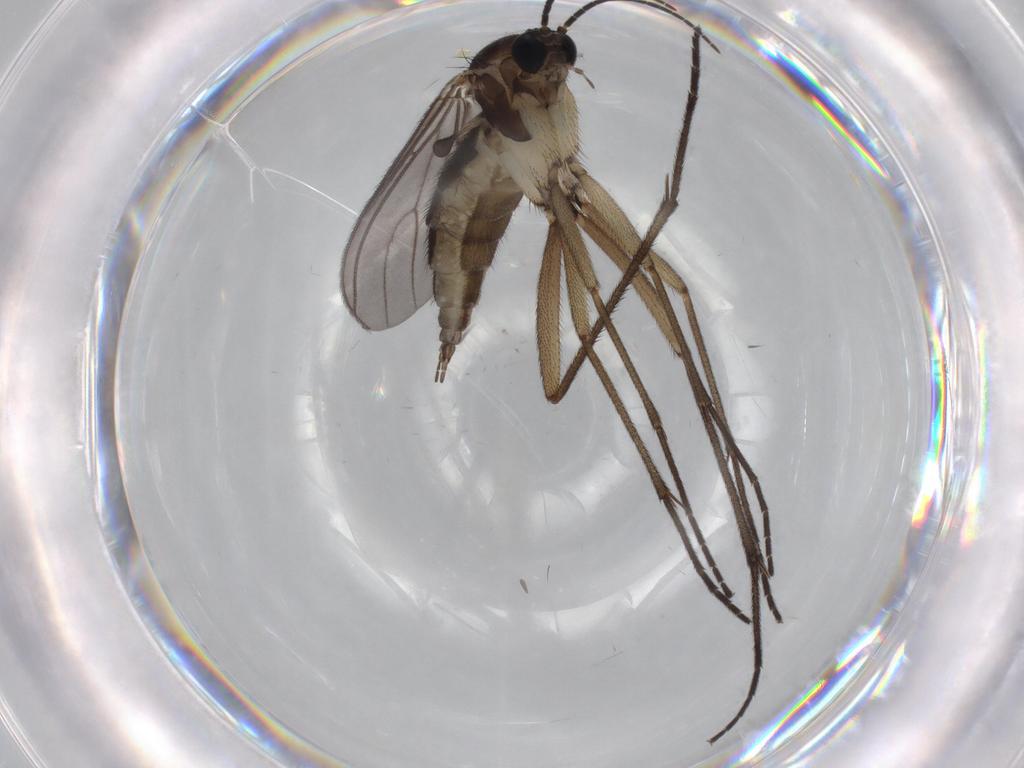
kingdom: Animalia
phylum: Arthropoda
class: Insecta
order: Diptera
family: Sciaridae
